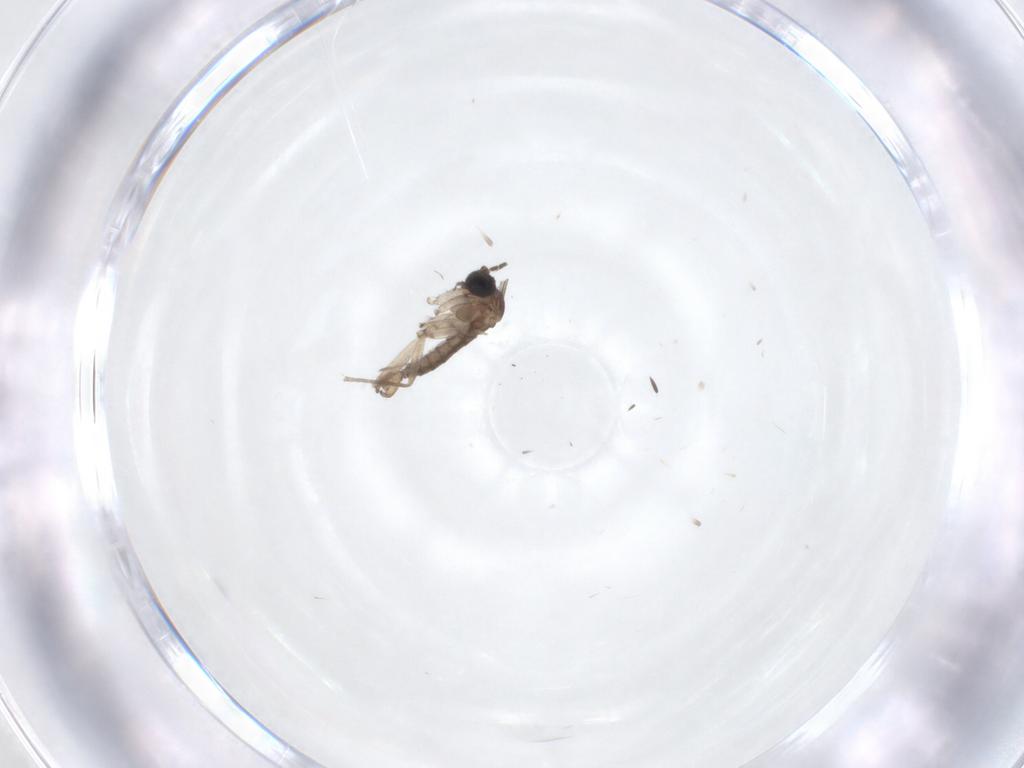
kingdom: Animalia
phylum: Arthropoda
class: Insecta
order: Diptera
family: Sciaridae
